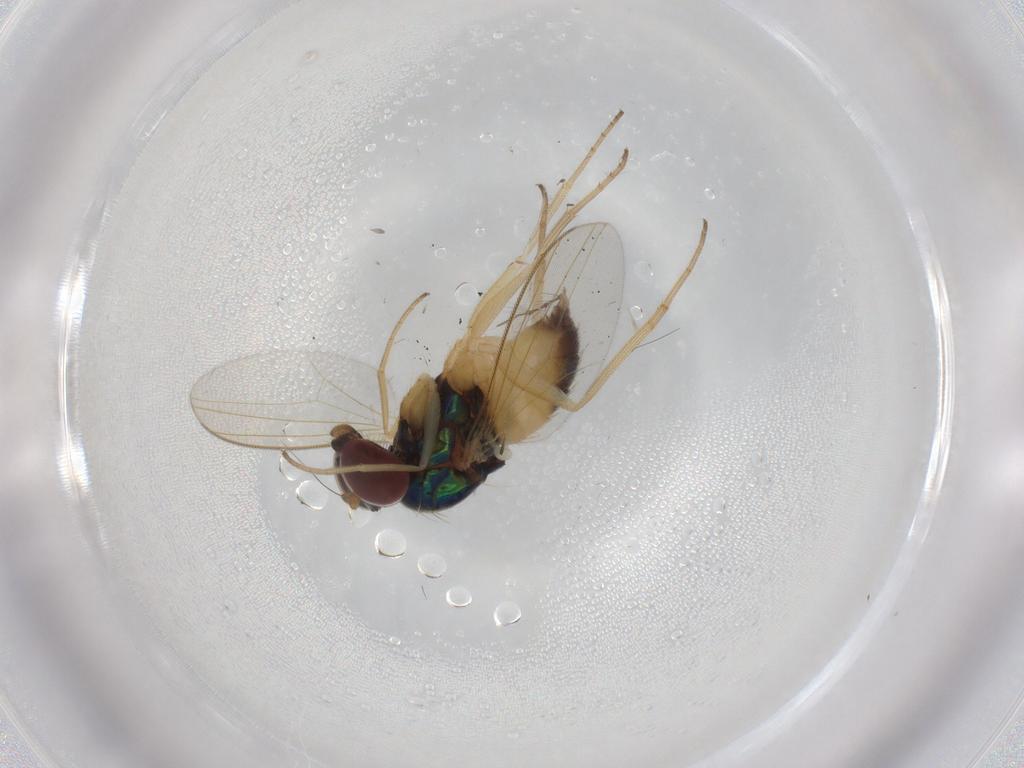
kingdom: Animalia
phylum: Arthropoda
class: Insecta
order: Diptera
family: Dolichopodidae
